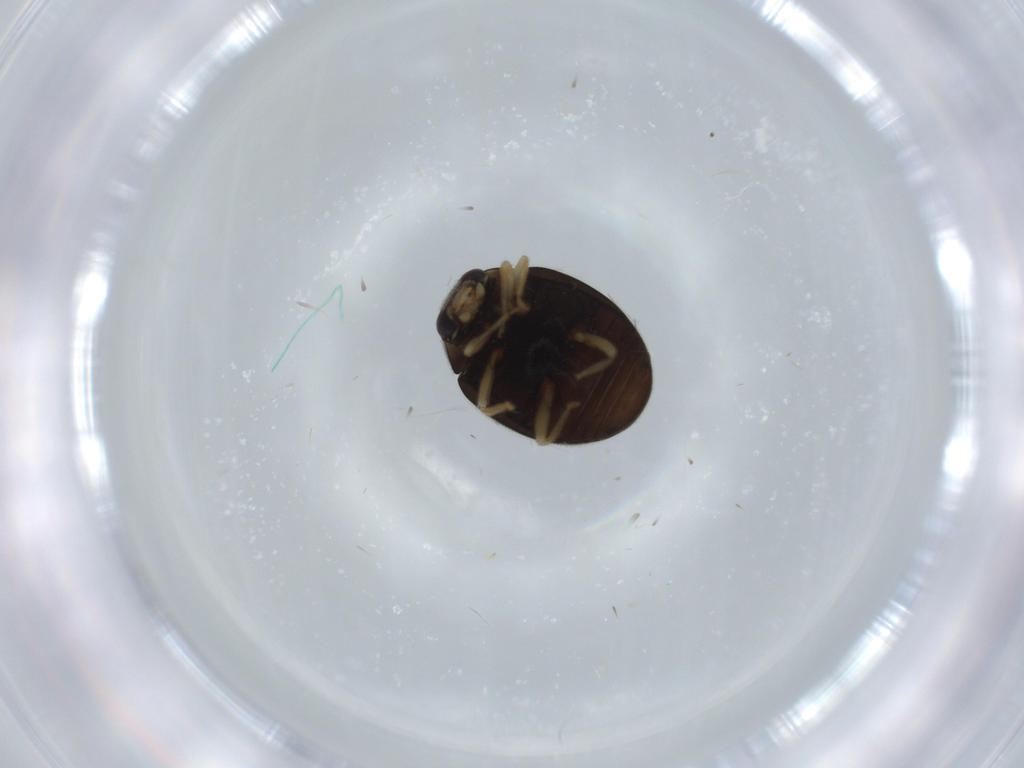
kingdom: Animalia
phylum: Arthropoda
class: Insecta
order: Coleoptera
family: Coccinellidae
